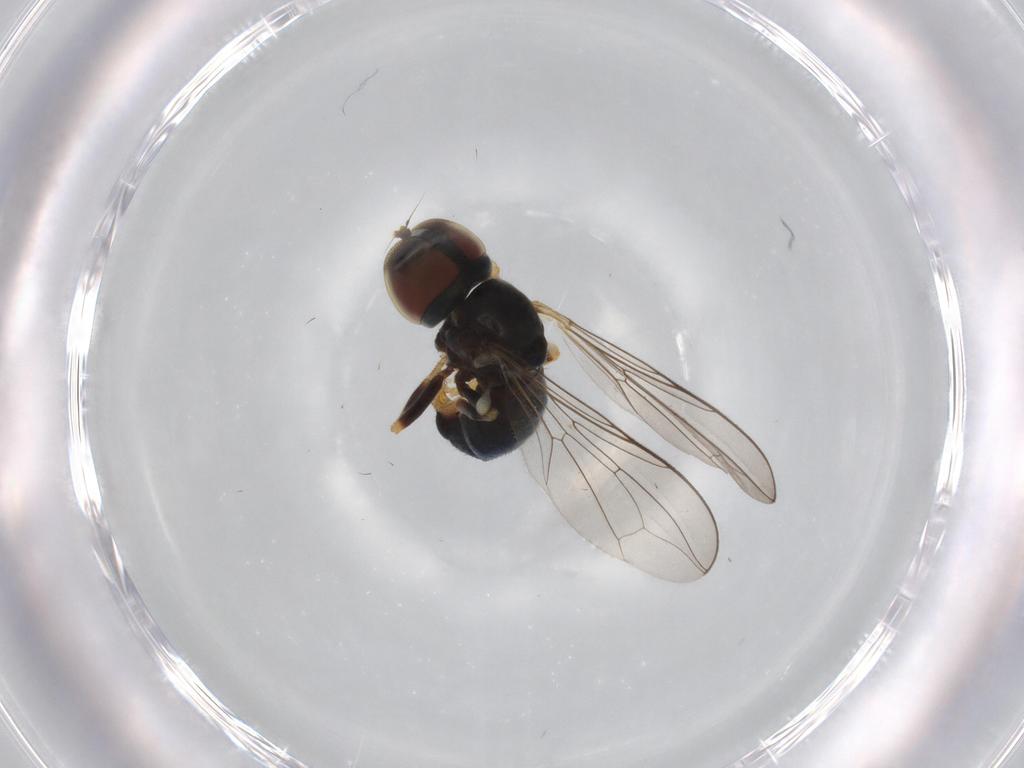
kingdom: Animalia
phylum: Arthropoda
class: Insecta
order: Diptera
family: Pipunculidae
